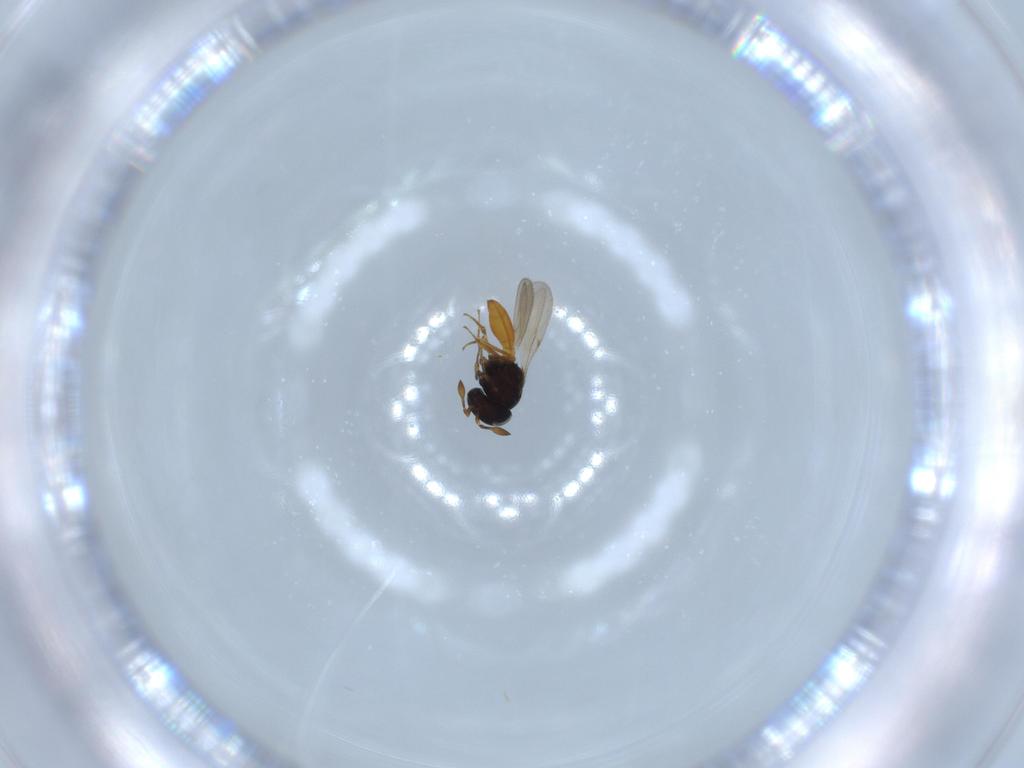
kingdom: Animalia
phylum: Arthropoda
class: Insecta
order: Hymenoptera
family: Scelionidae
